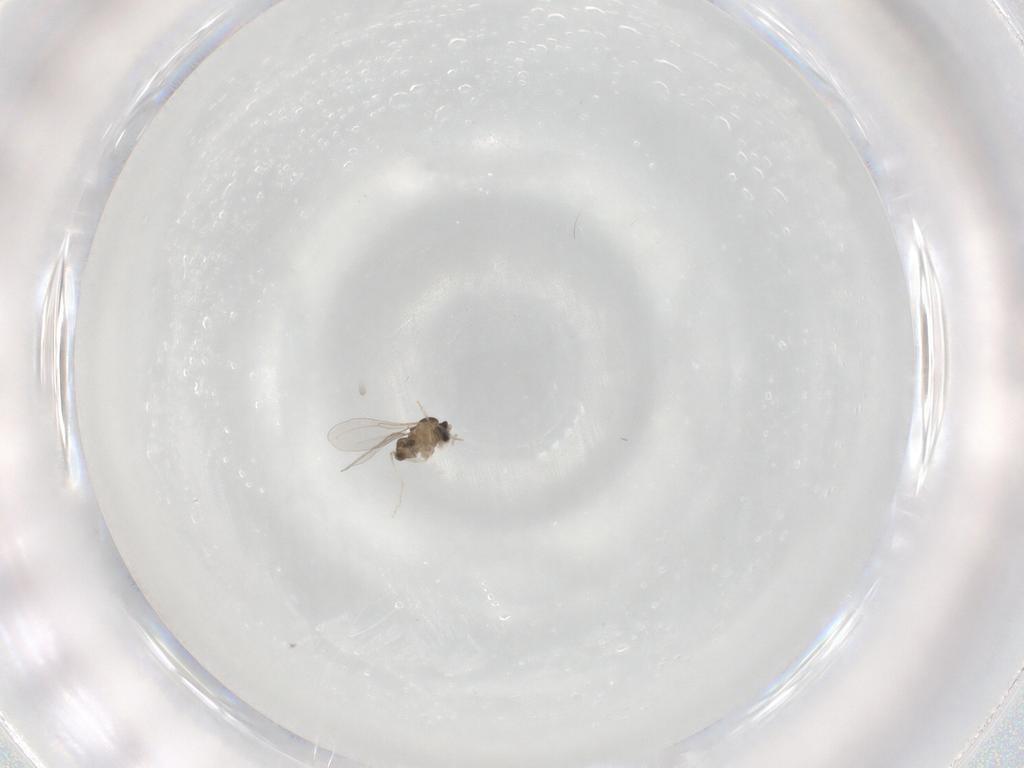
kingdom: Animalia
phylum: Arthropoda
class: Insecta
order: Diptera
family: Cecidomyiidae
